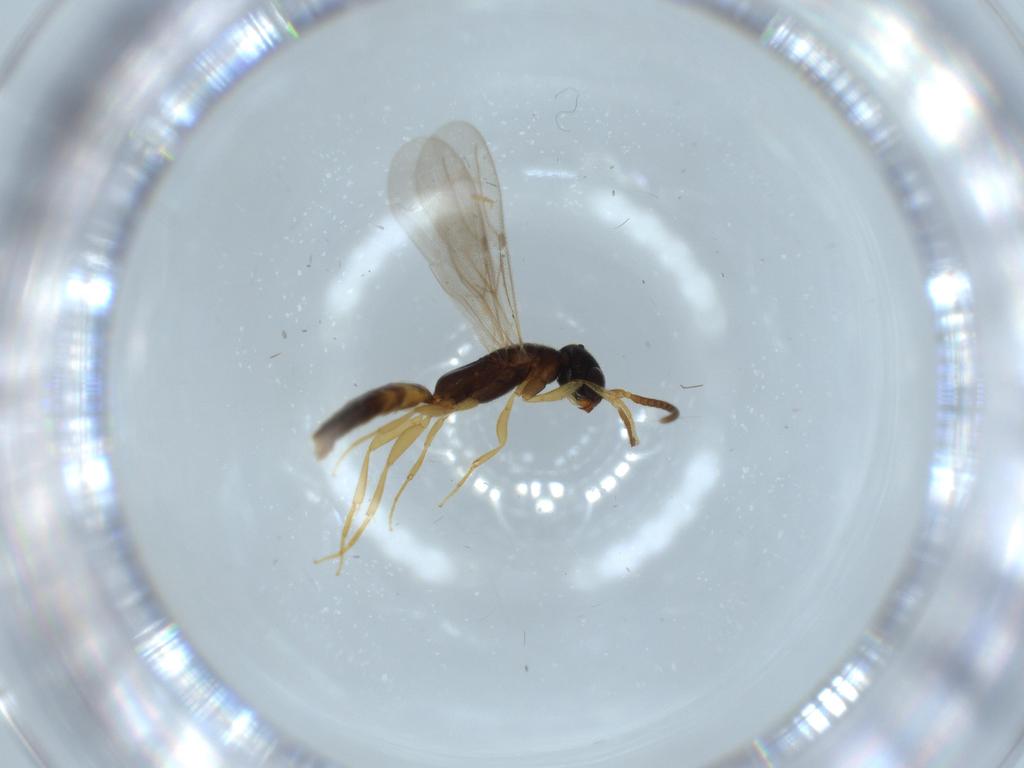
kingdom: Animalia
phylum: Arthropoda
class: Insecta
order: Hymenoptera
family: Bethylidae
